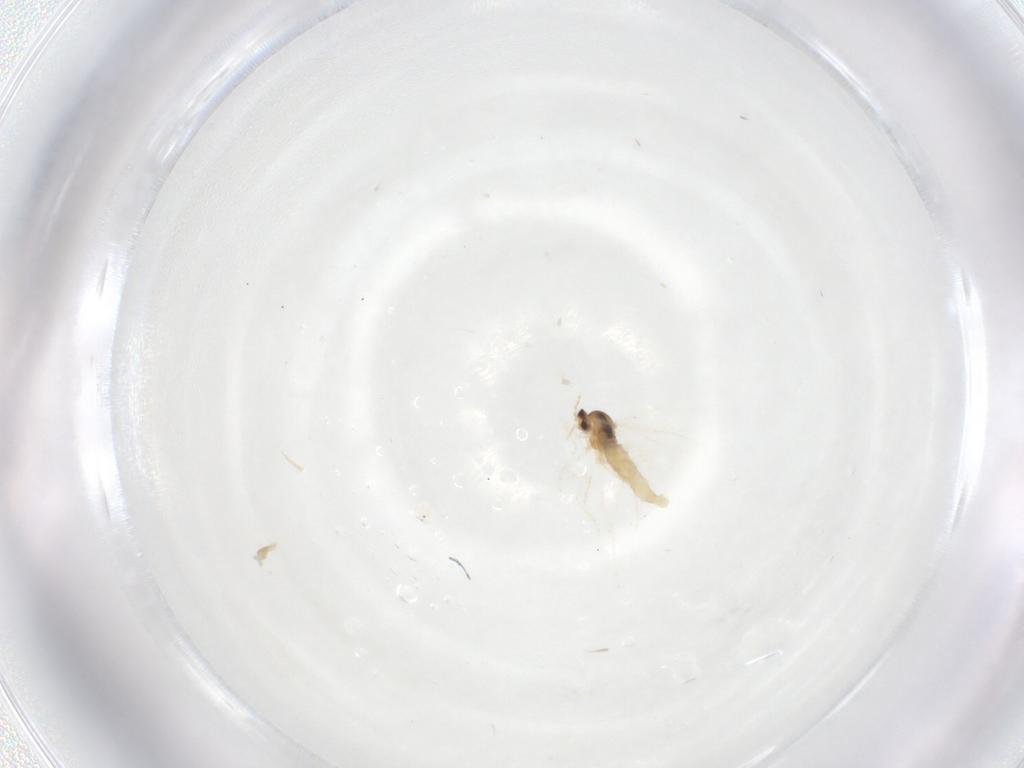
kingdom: Animalia
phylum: Arthropoda
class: Insecta
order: Diptera
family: Cecidomyiidae
